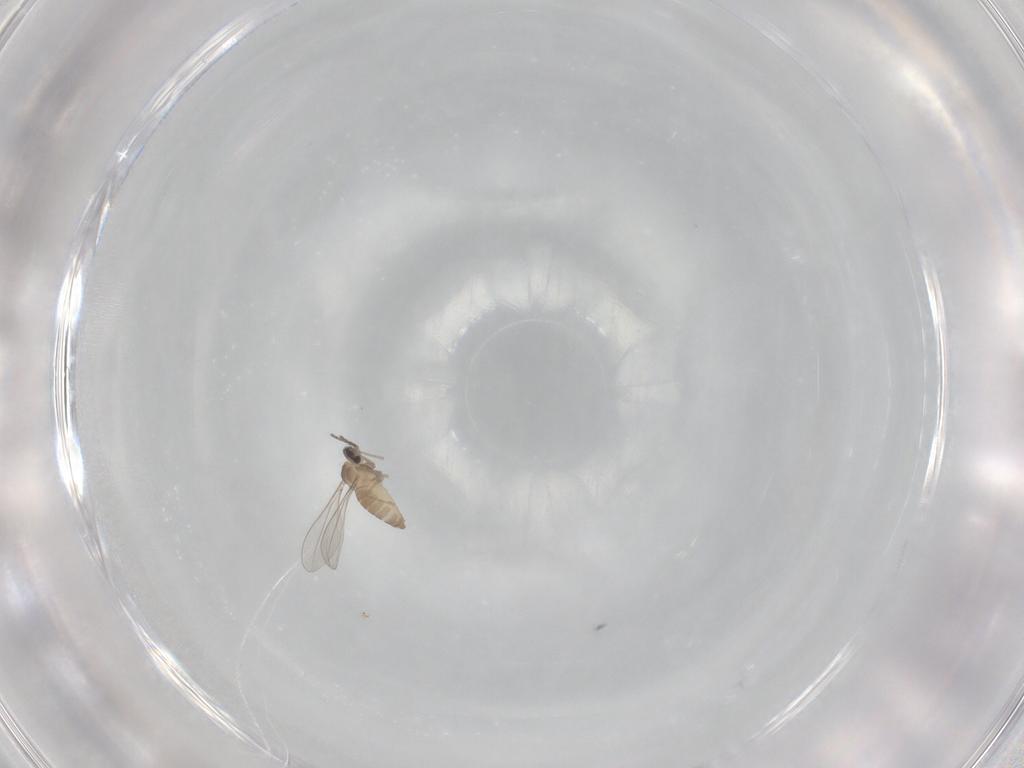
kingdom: Animalia
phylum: Arthropoda
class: Insecta
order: Diptera
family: Cecidomyiidae
